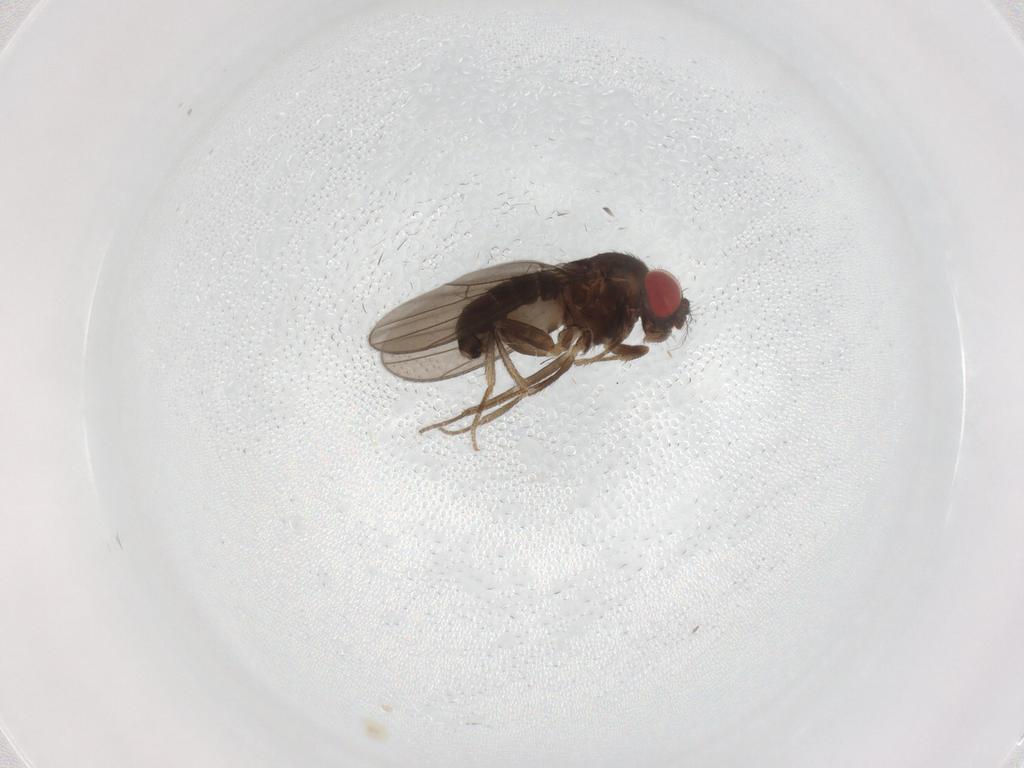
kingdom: Animalia
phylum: Arthropoda
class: Insecta
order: Diptera
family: Drosophilidae
